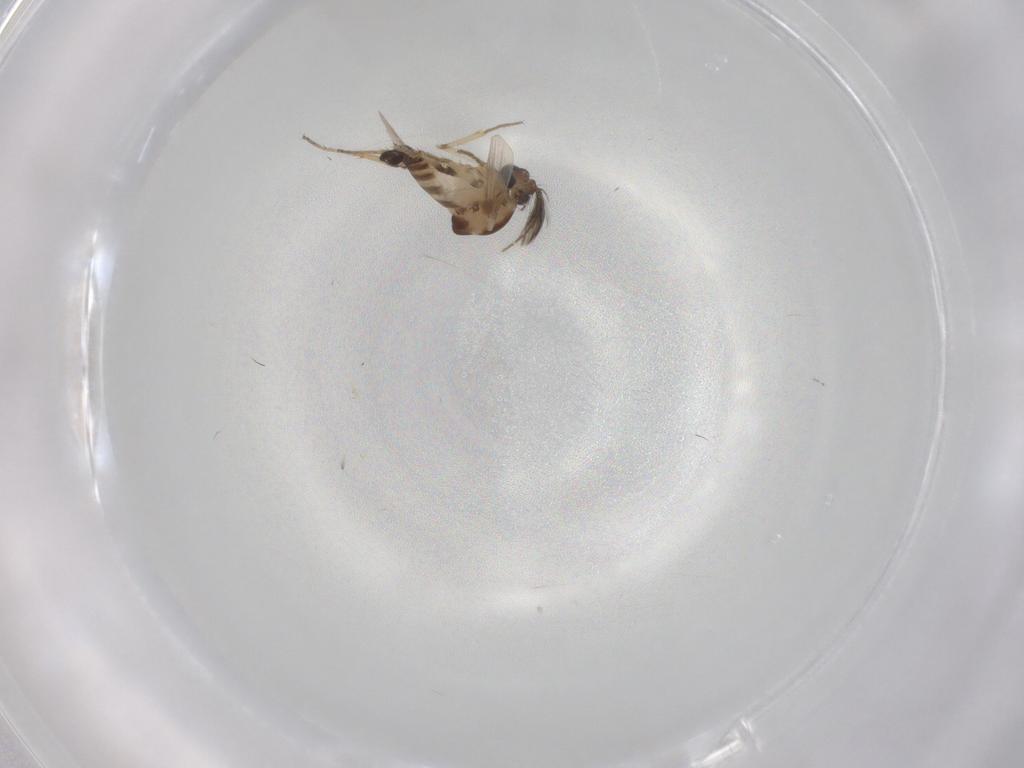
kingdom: Animalia
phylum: Arthropoda
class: Insecta
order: Diptera
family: Ceratopogonidae
